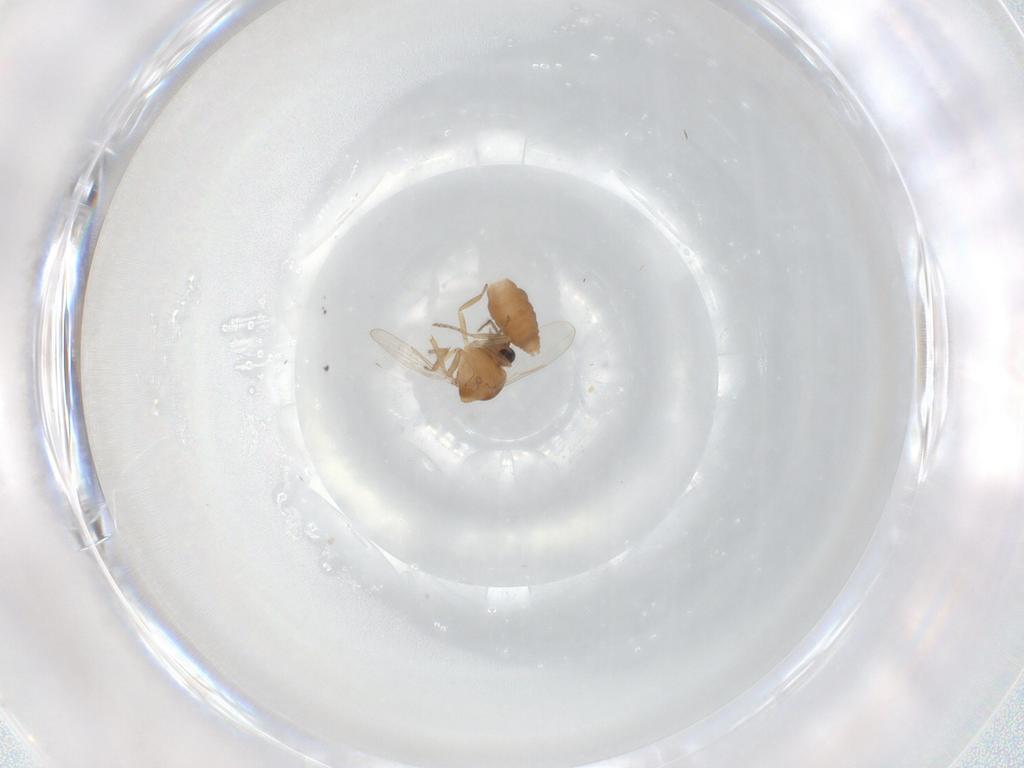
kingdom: Animalia
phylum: Arthropoda
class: Insecta
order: Diptera
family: Ceratopogonidae
